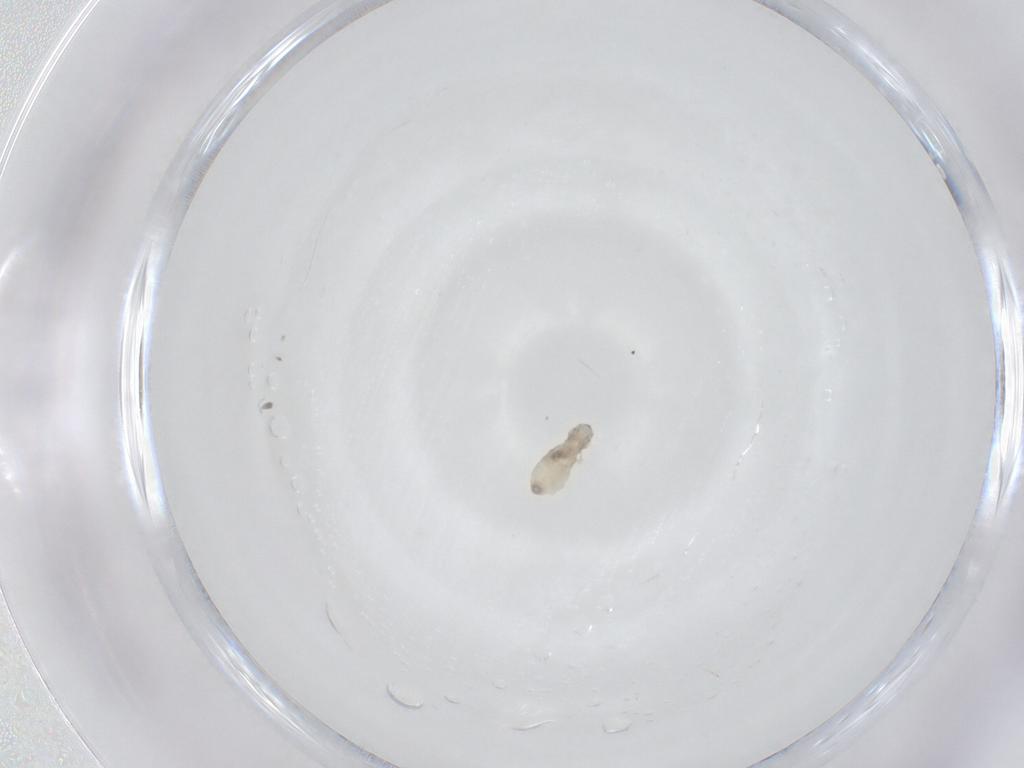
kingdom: Animalia
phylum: Arthropoda
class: Insecta
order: Diptera
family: Cecidomyiidae
